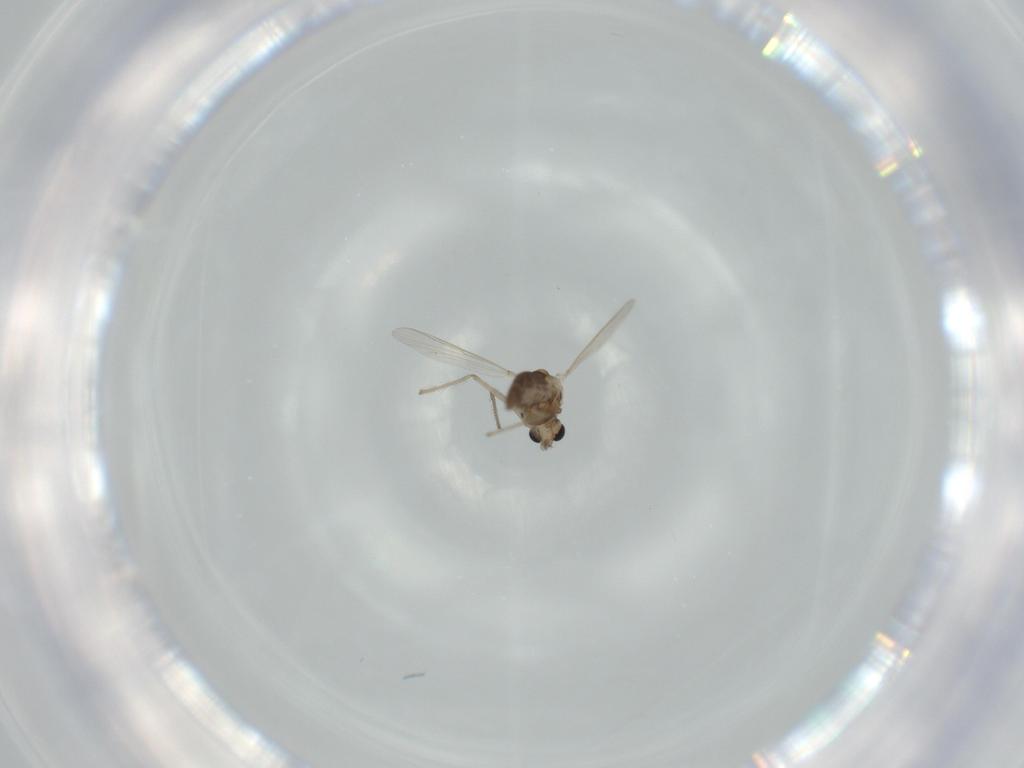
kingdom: Animalia
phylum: Arthropoda
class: Insecta
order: Diptera
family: Chironomidae
